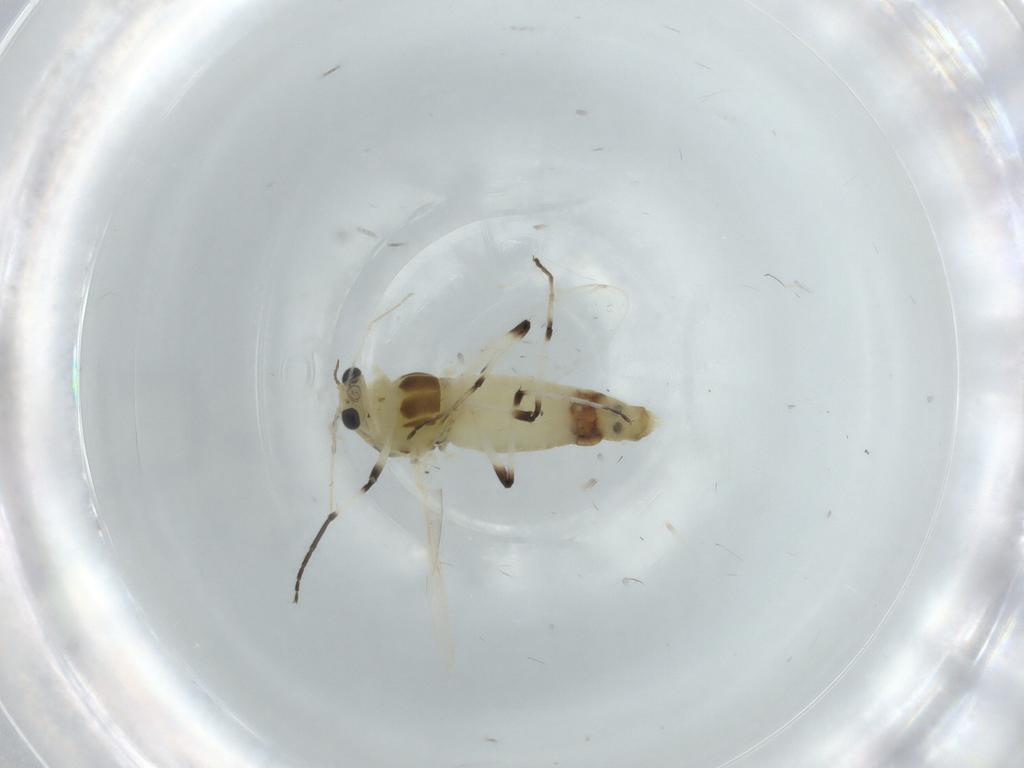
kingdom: Animalia
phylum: Arthropoda
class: Insecta
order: Diptera
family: Chironomidae
